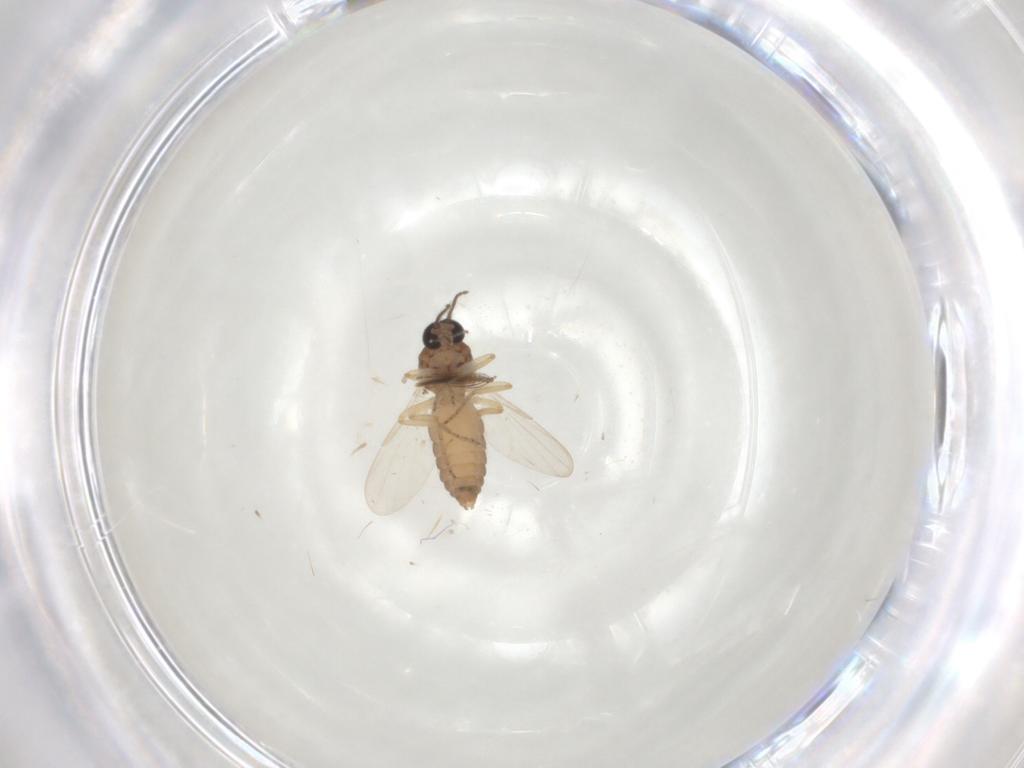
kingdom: Animalia
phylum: Arthropoda
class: Insecta
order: Diptera
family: Ceratopogonidae
